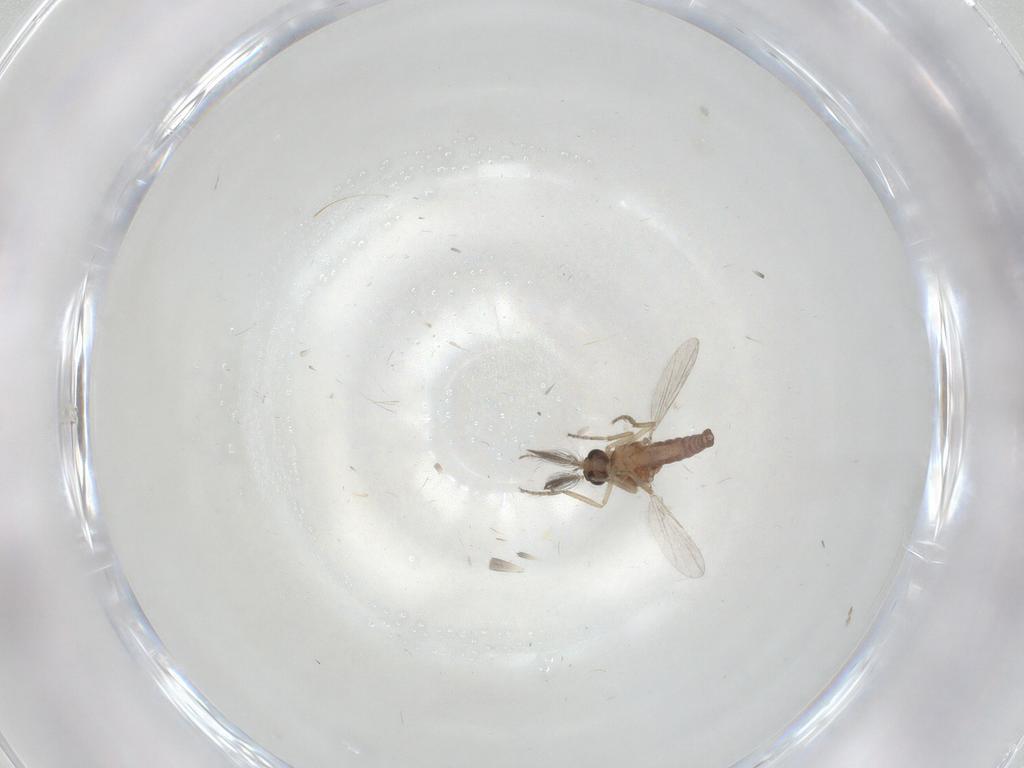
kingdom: Animalia
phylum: Arthropoda
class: Insecta
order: Diptera
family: Ceratopogonidae
